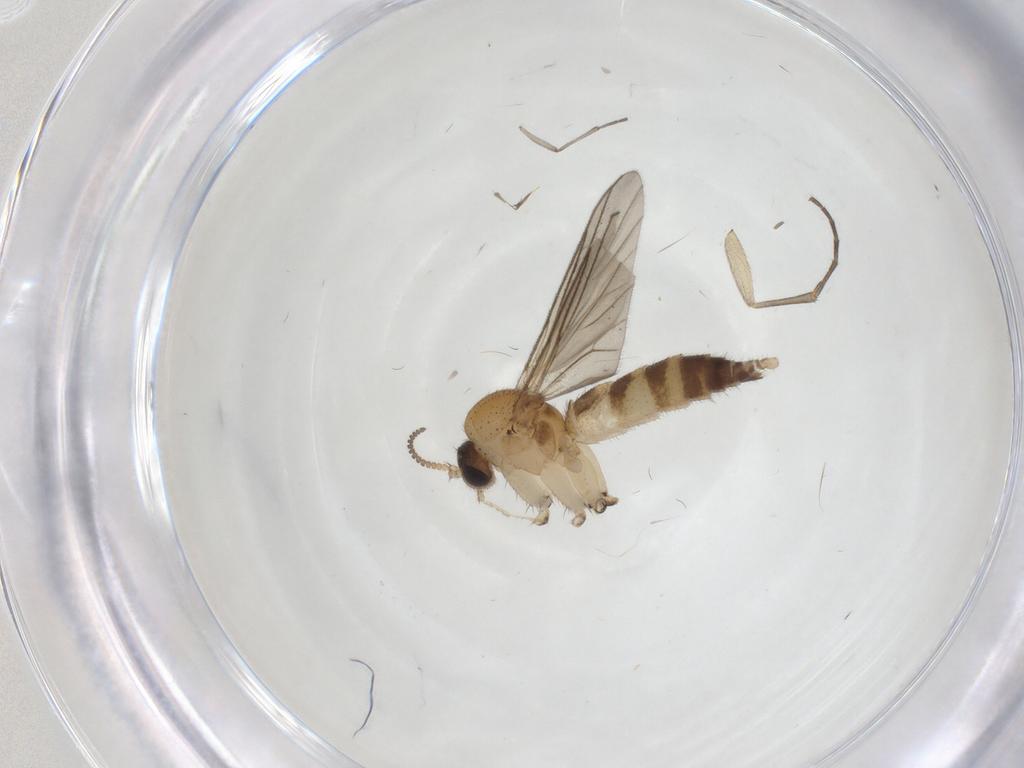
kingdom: Animalia
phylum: Arthropoda
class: Insecta
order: Diptera
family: Sciaridae
